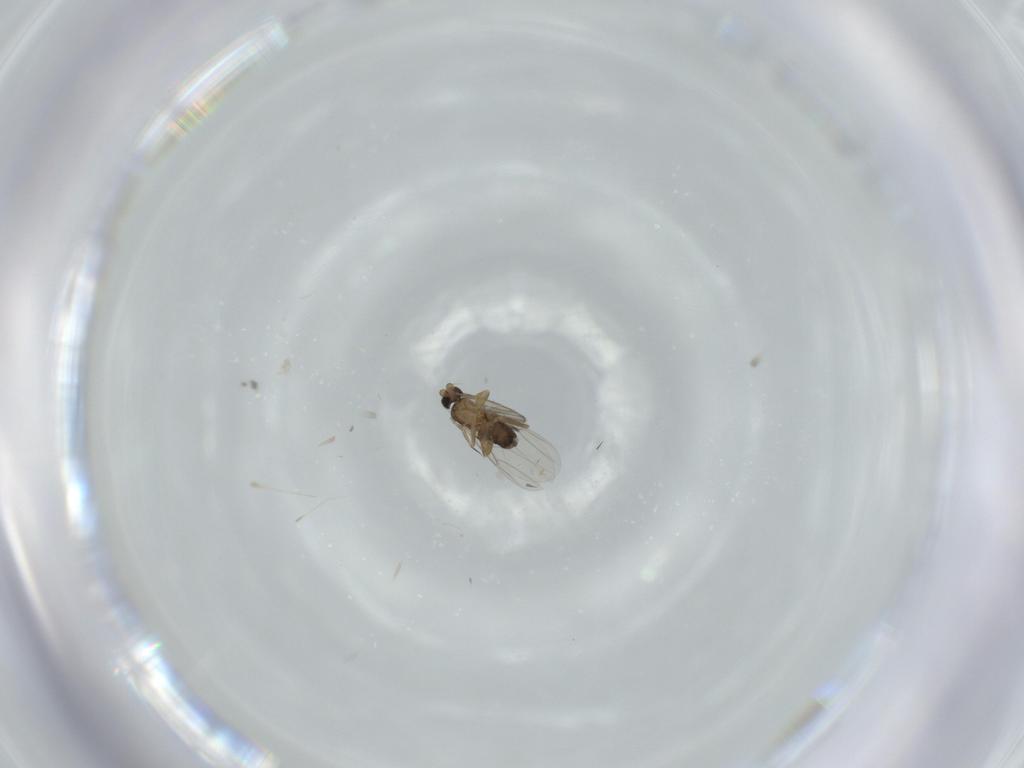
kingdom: Animalia
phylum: Arthropoda
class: Insecta
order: Diptera
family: Phoridae
